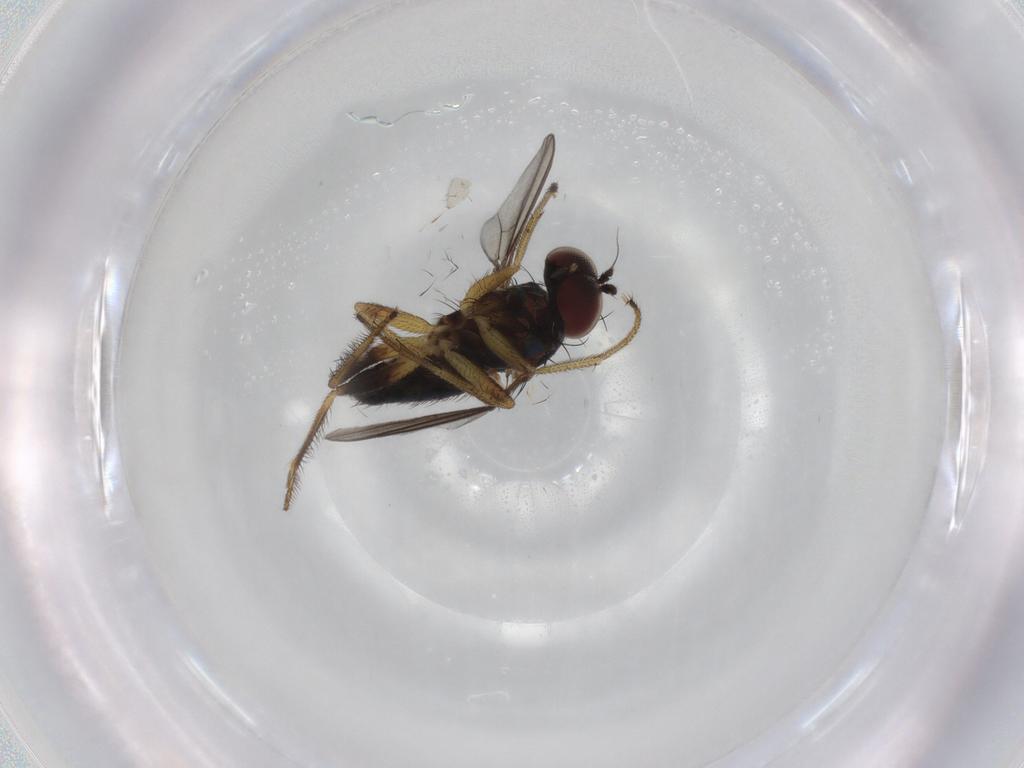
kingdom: Animalia
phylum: Arthropoda
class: Insecta
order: Diptera
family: Dolichopodidae
